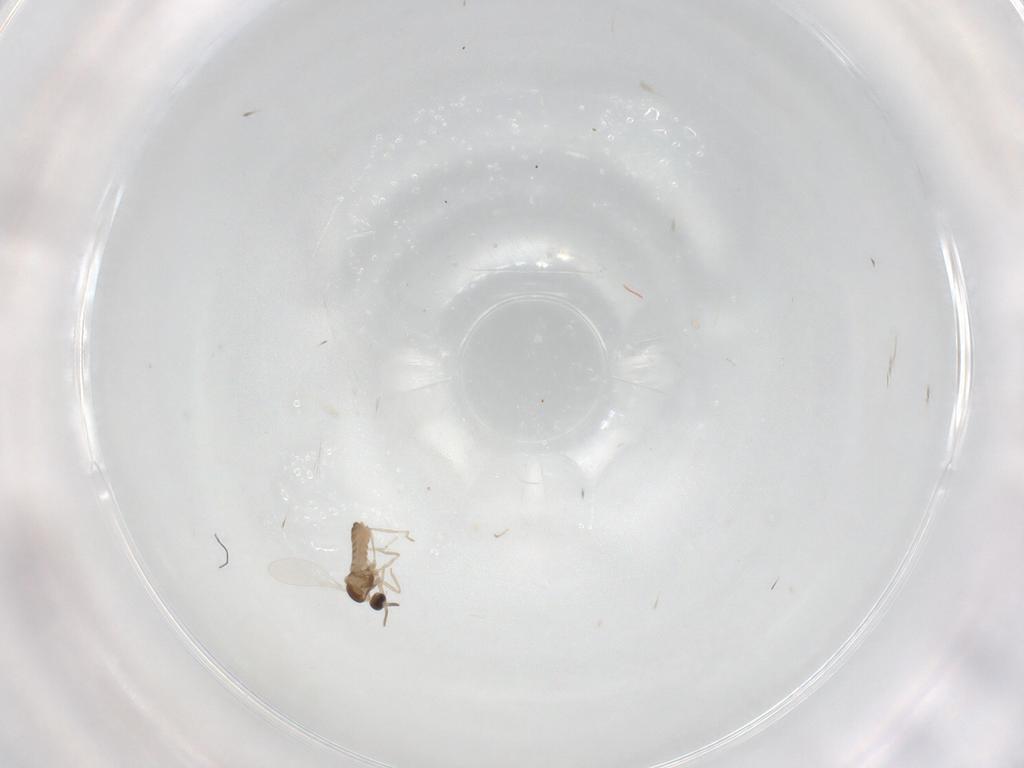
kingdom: Animalia
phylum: Arthropoda
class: Insecta
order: Diptera
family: Cecidomyiidae
